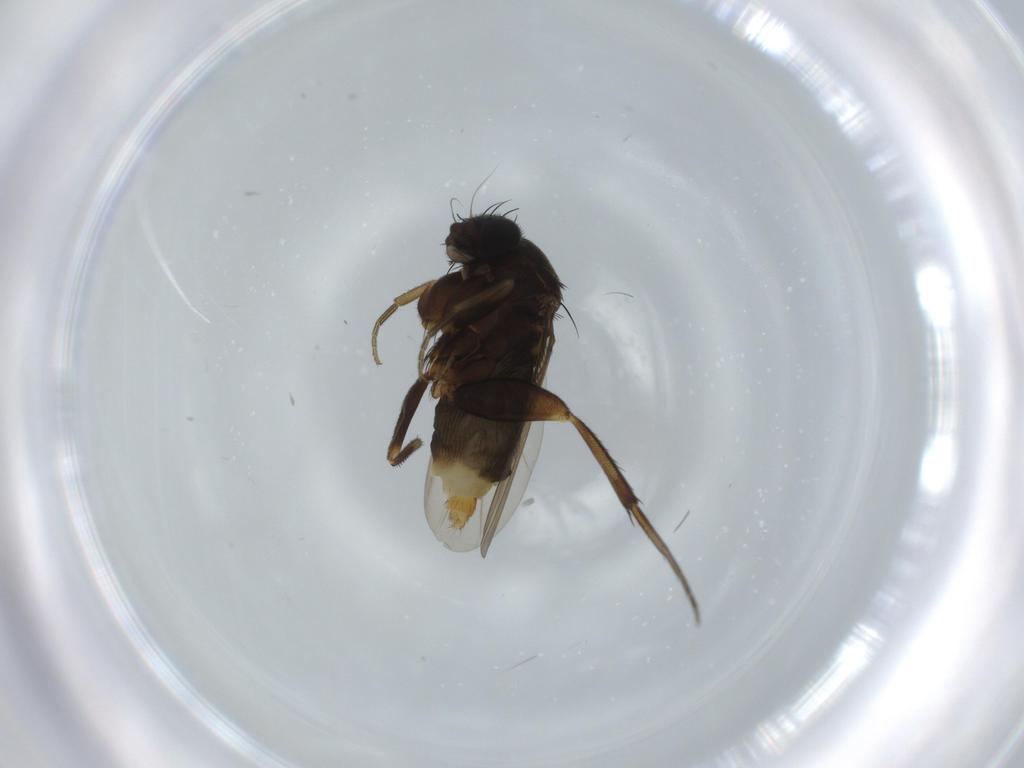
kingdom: Animalia
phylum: Arthropoda
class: Insecta
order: Diptera
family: Phoridae
